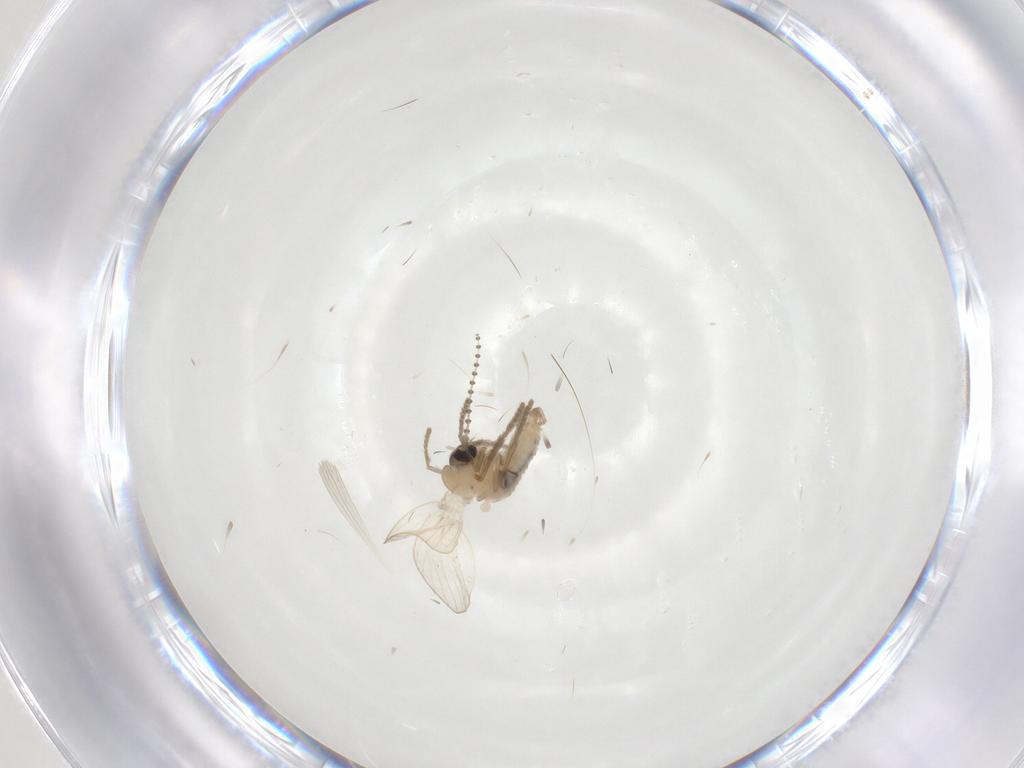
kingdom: Animalia
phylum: Arthropoda
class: Insecta
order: Diptera
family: Psychodidae
